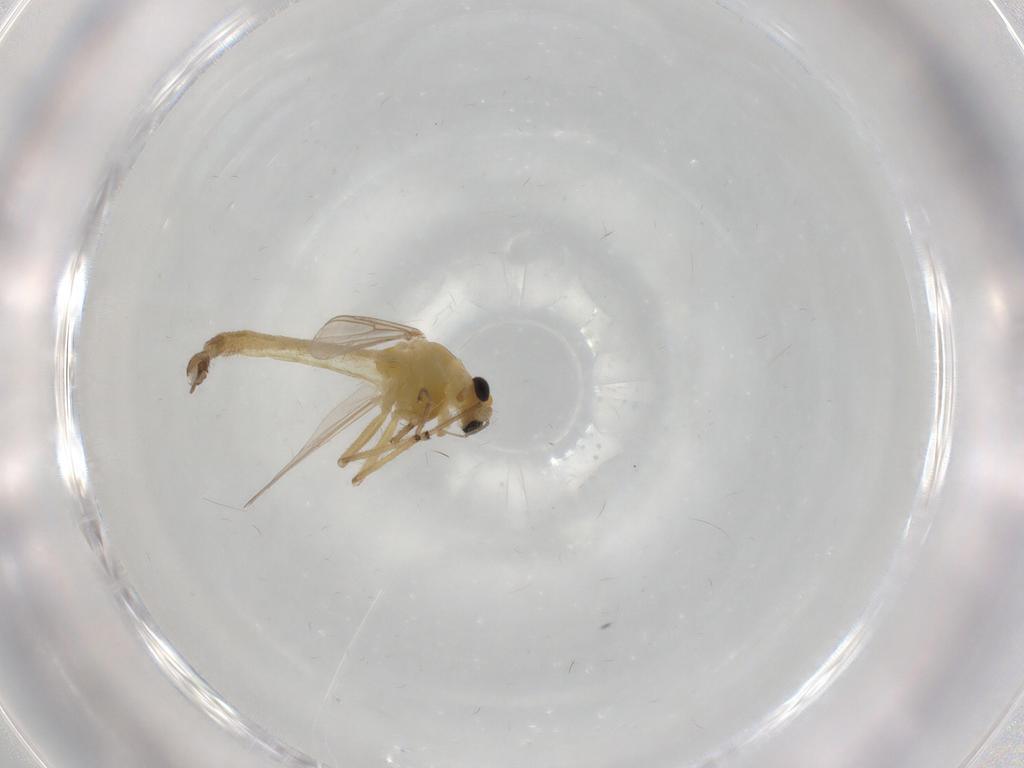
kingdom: Animalia
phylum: Arthropoda
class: Insecta
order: Diptera
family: Chironomidae
